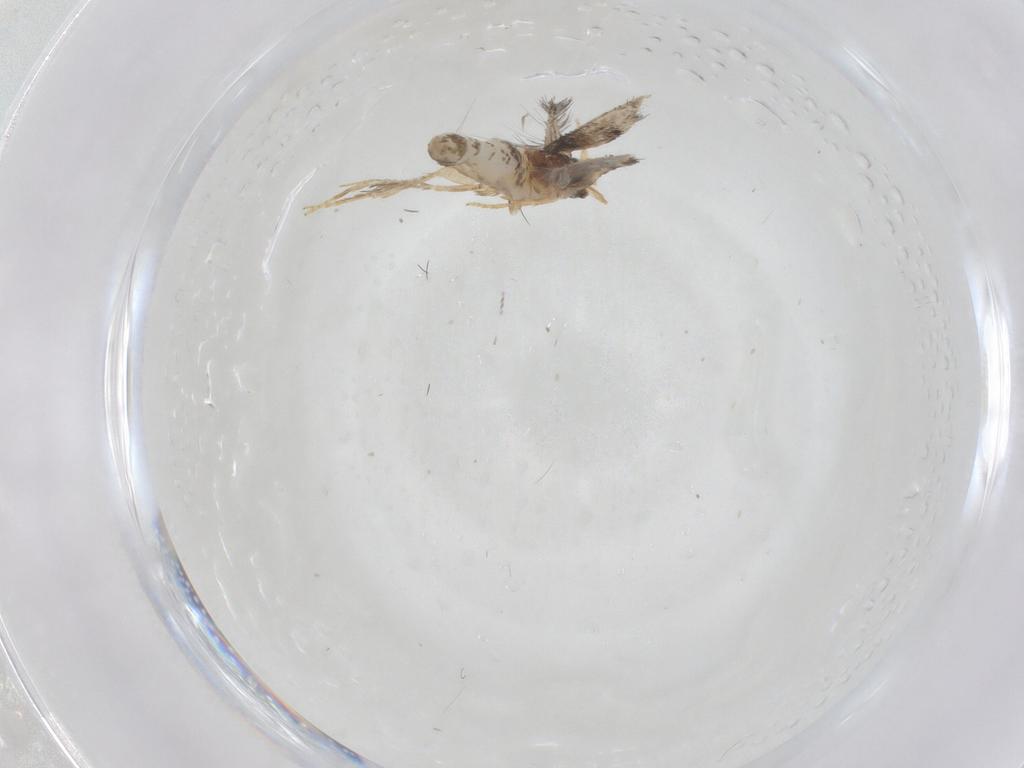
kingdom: Animalia
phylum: Arthropoda
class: Insecta
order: Lepidoptera
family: Nepticulidae
